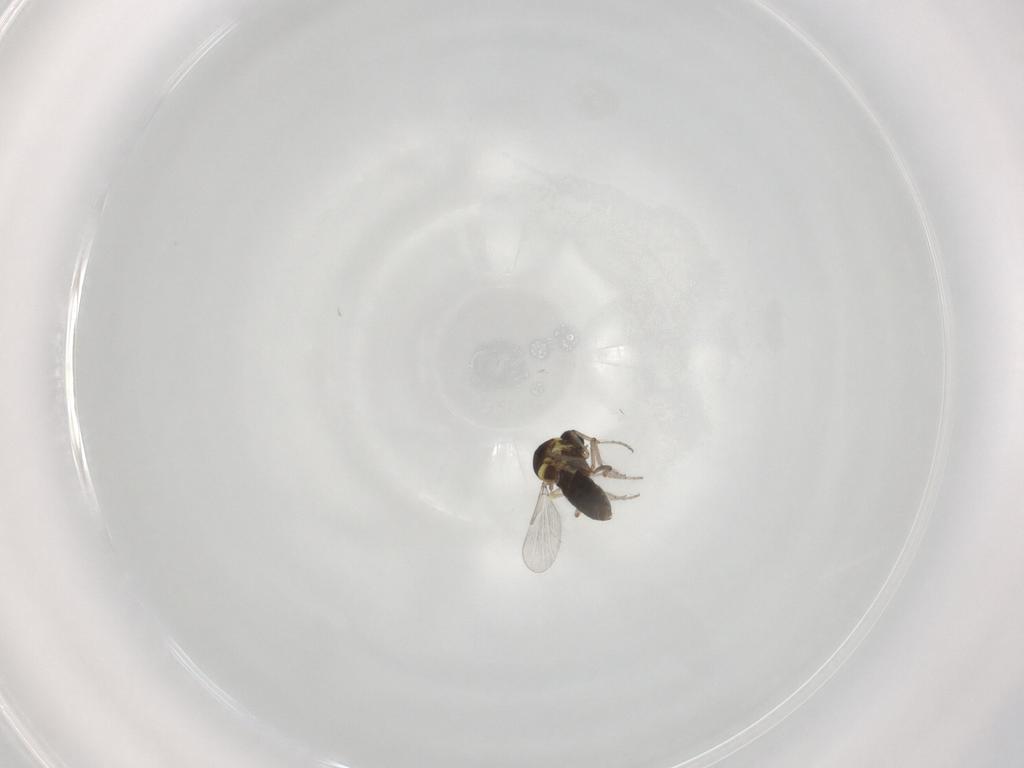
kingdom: Animalia
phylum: Arthropoda
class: Insecta
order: Diptera
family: Ceratopogonidae
